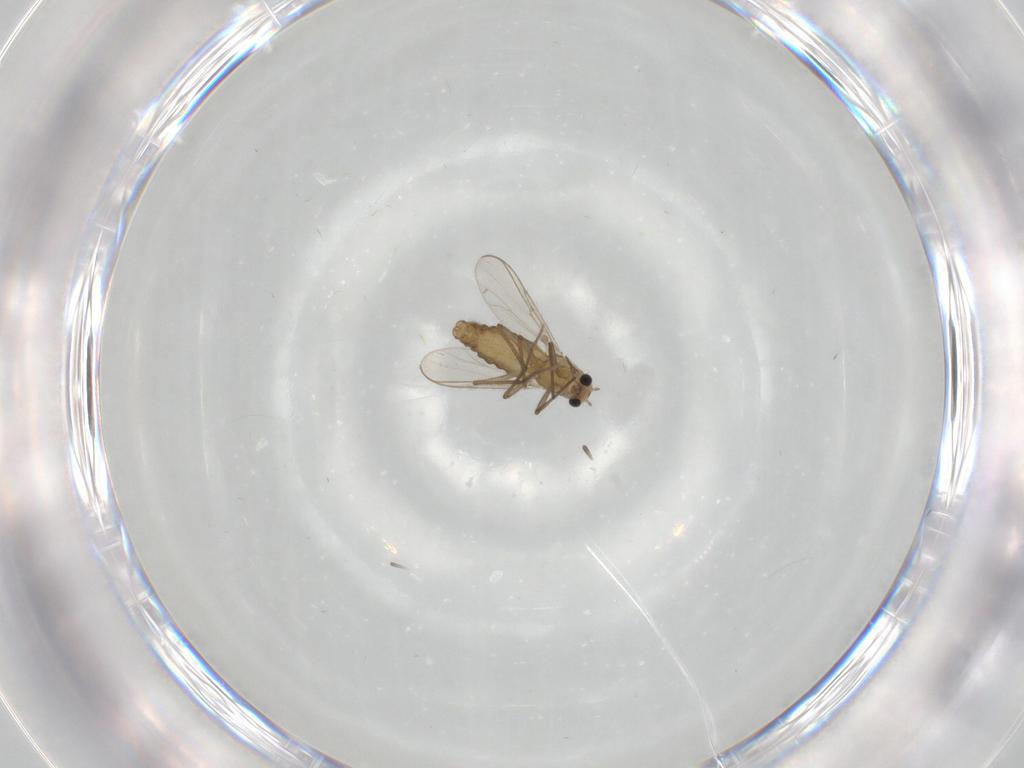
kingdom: Animalia
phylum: Arthropoda
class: Insecta
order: Diptera
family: Chironomidae
